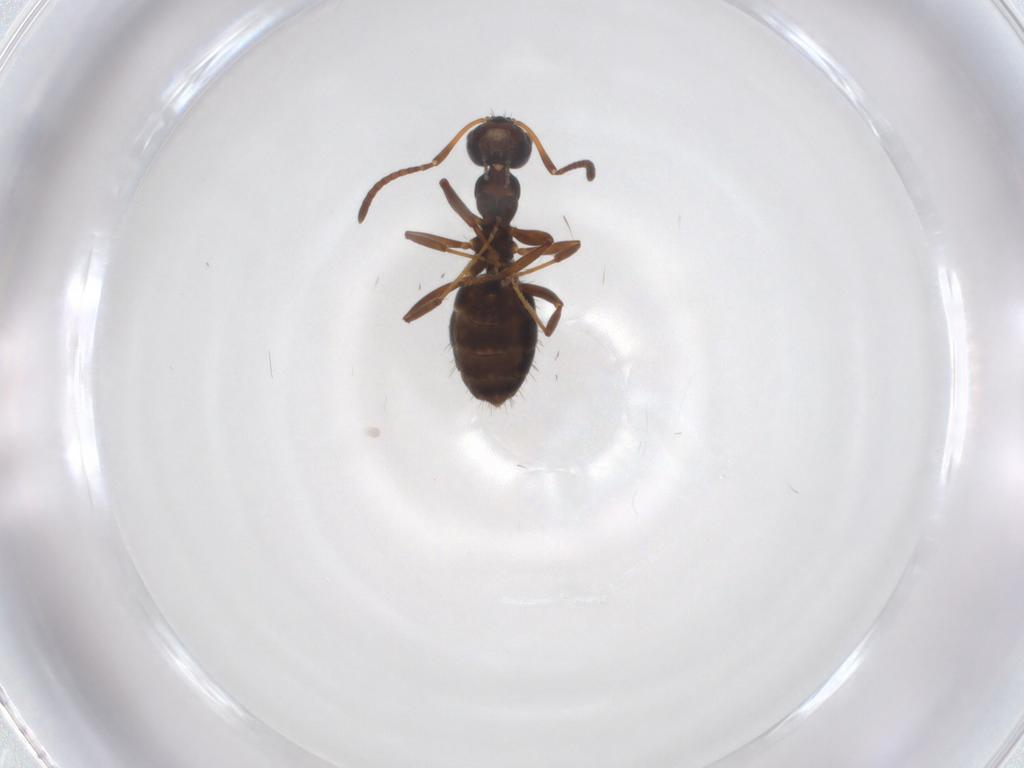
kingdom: Animalia
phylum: Arthropoda
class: Insecta
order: Hymenoptera
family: Formicidae
